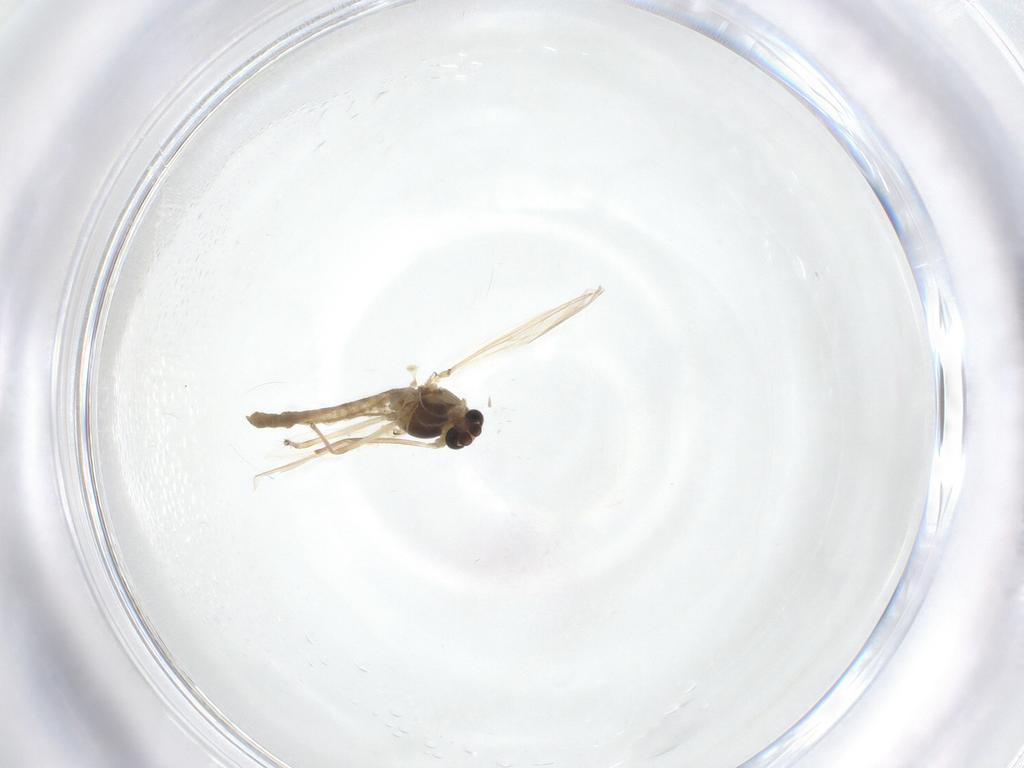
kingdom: Animalia
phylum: Arthropoda
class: Insecta
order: Diptera
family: Chironomidae
